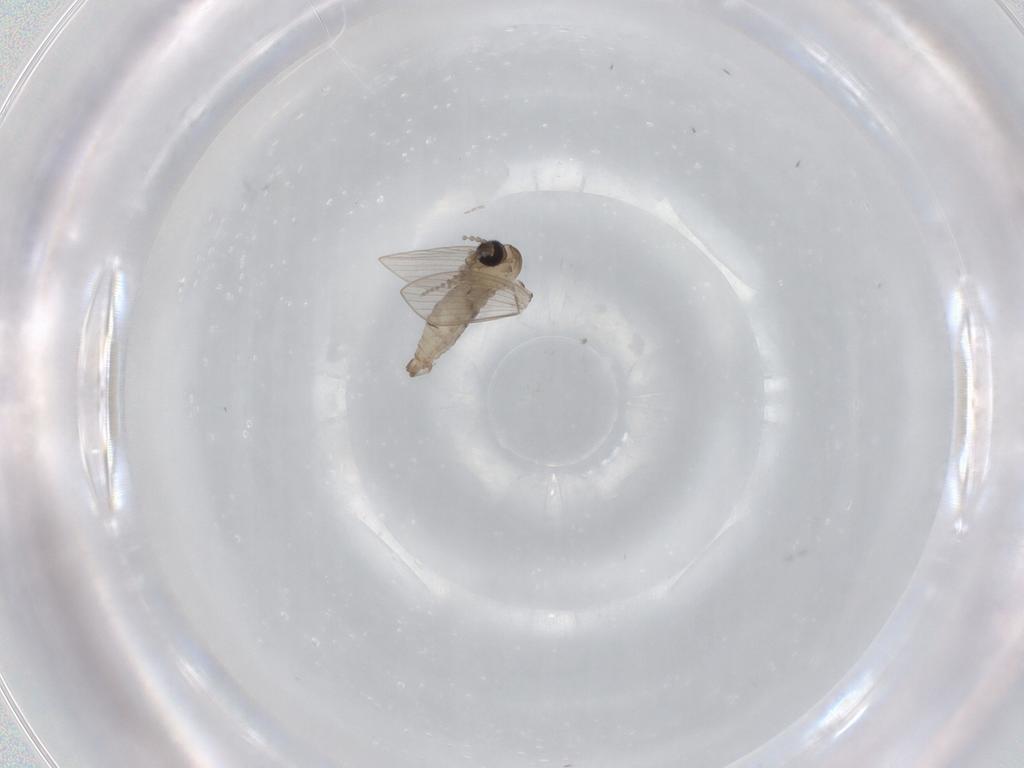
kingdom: Animalia
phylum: Arthropoda
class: Insecta
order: Diptera
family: Psychodidae
